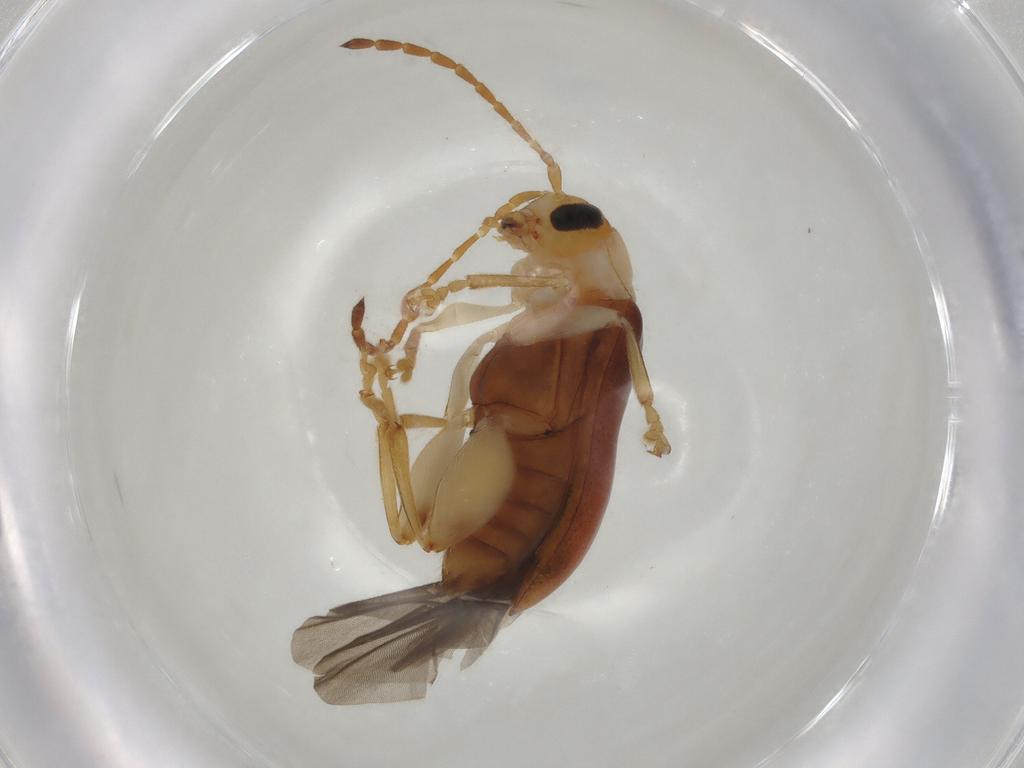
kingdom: Animalia
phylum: Arthropoda
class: Insecta
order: Coleoptera
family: Chrysomelidae
